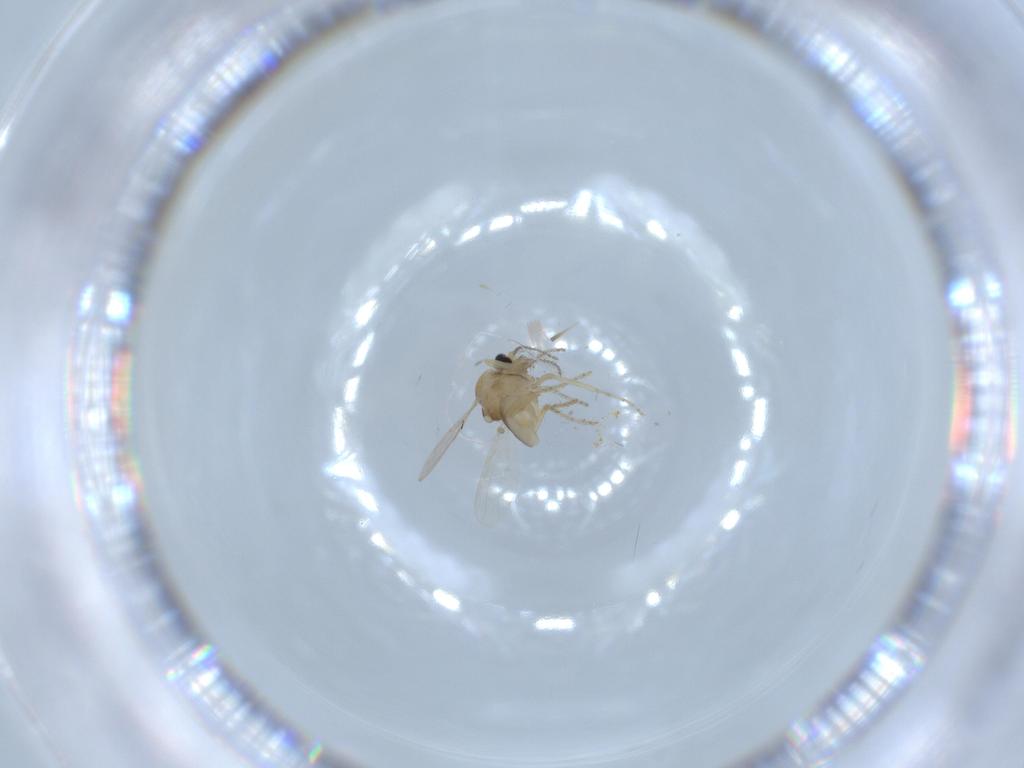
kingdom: Animalia
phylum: Arthropoda
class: Insecta
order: Diptera
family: Ceratopogonidae
